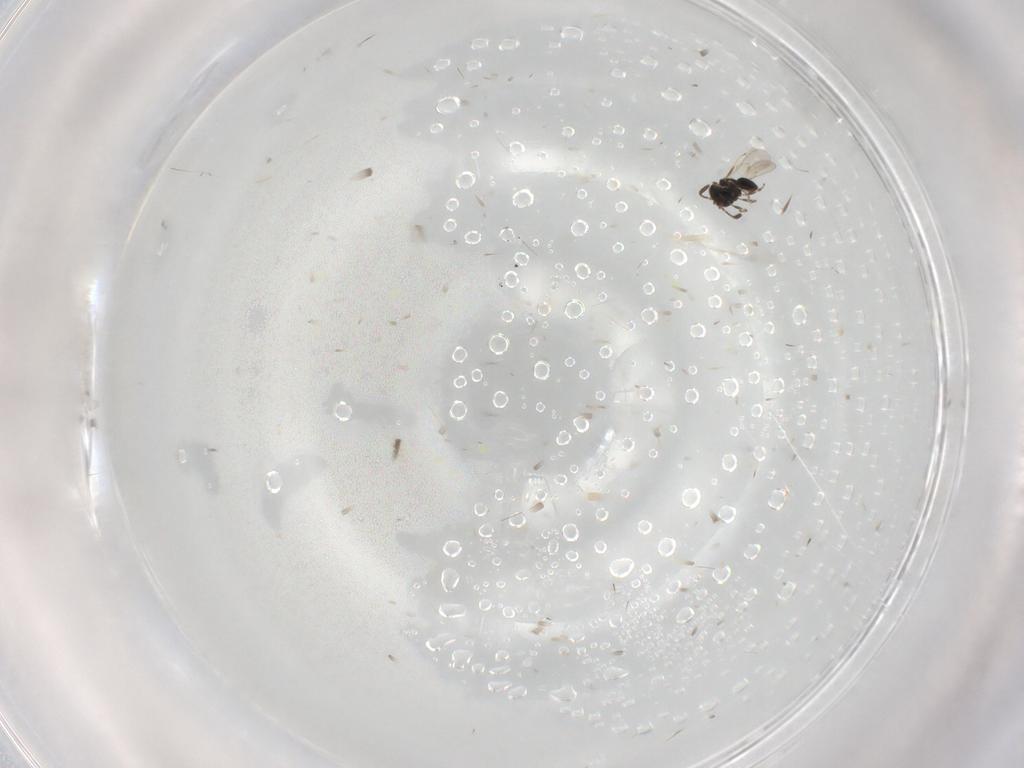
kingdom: Animalia
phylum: Arthropoda
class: Insecta
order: Hymenoptera
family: Scelionidae
